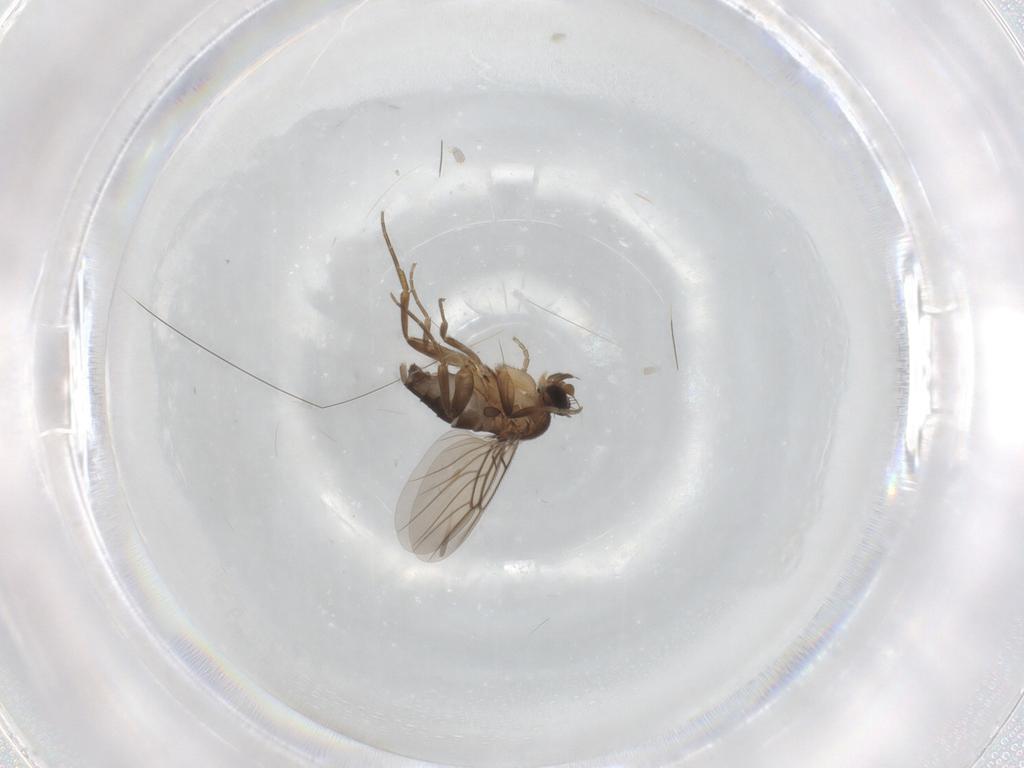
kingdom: Animalia
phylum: Arthropoda
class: Insecta
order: Diptera
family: Phoridae
